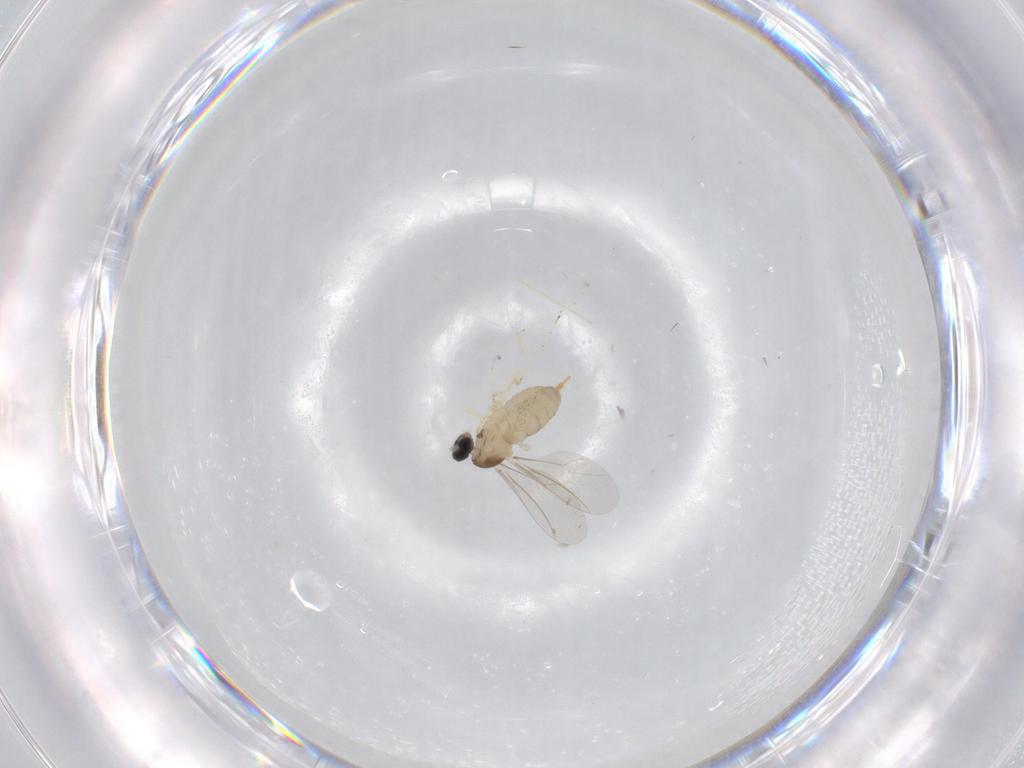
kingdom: Animalia
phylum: Arthropoda
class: Insecta
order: Diptera
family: Cecidomyiidae
